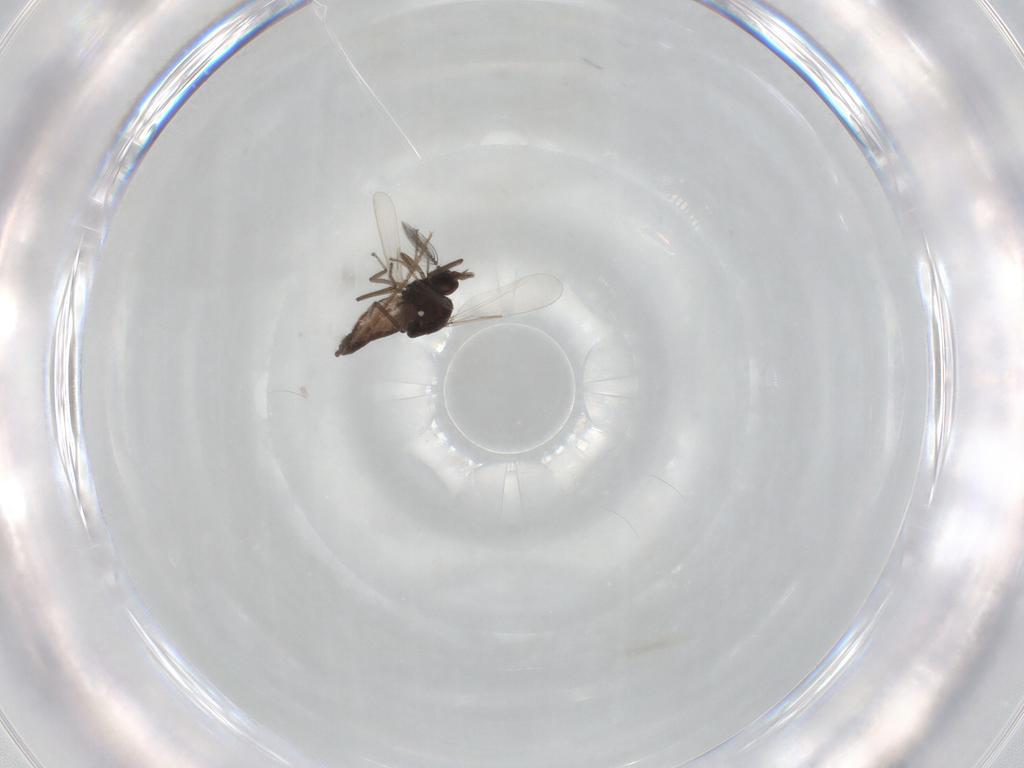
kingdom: Animalia
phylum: Arthropoda
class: Insecta
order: Diptera
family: Ceratopogonidae
